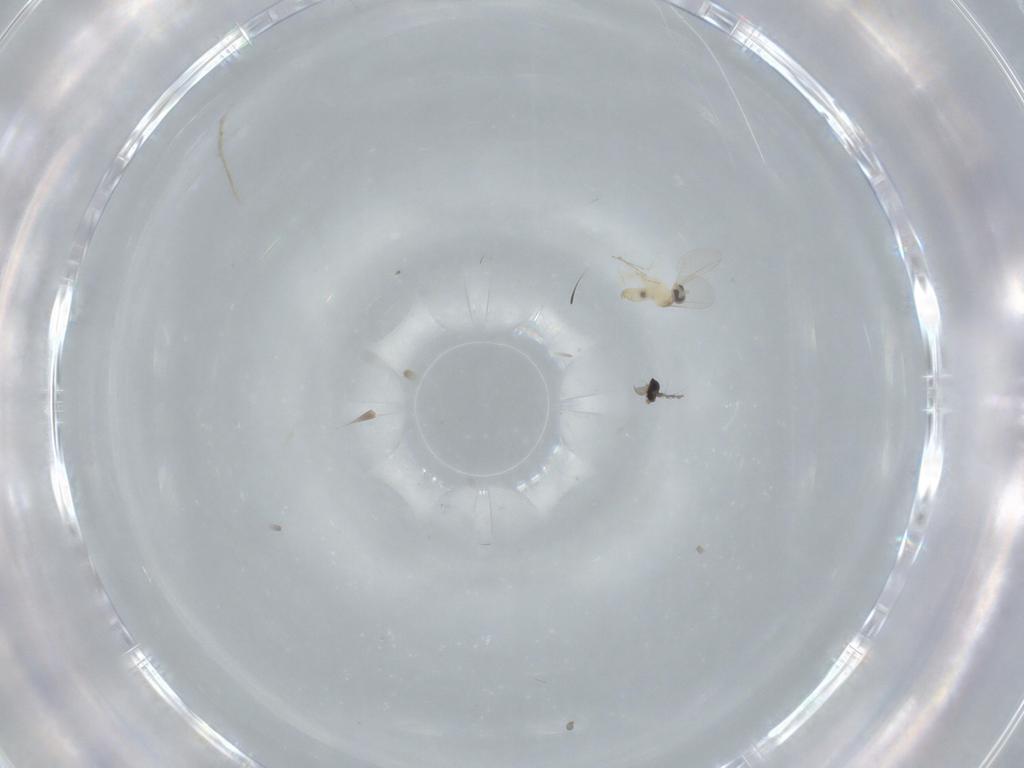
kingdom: Animalia
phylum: Arthropoda
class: Insecta
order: Diptera
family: Cecidomyiidae
